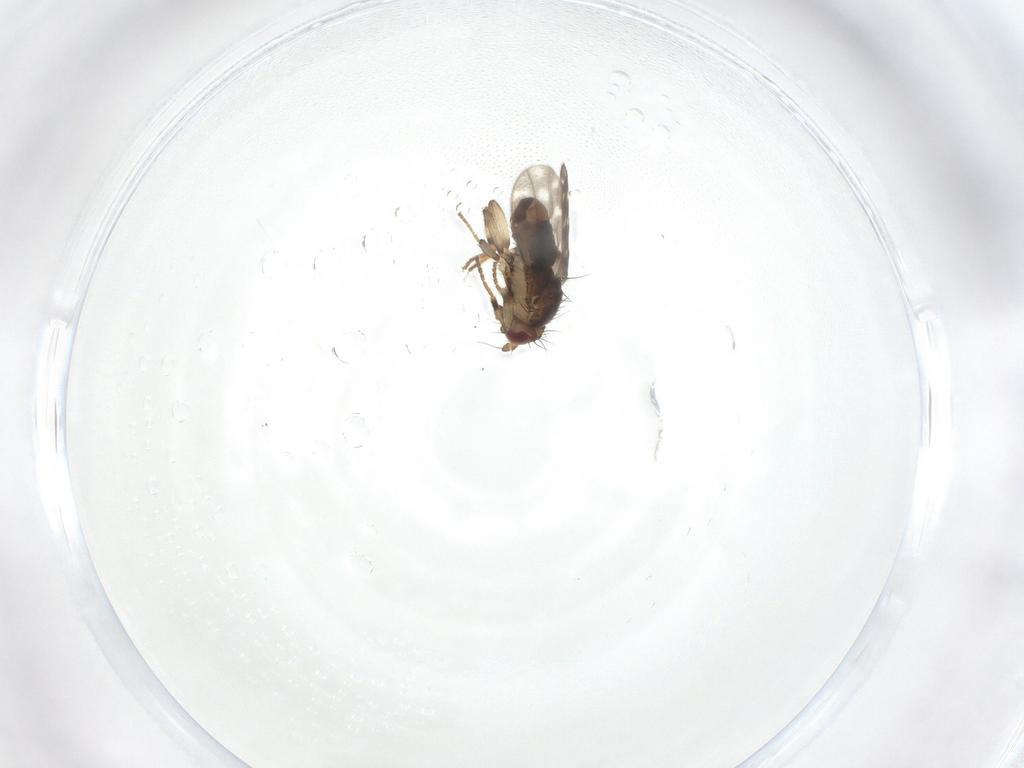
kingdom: Animalia
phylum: Arthropoda
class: Insecta
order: Diptera
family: Sphaeroceridae
